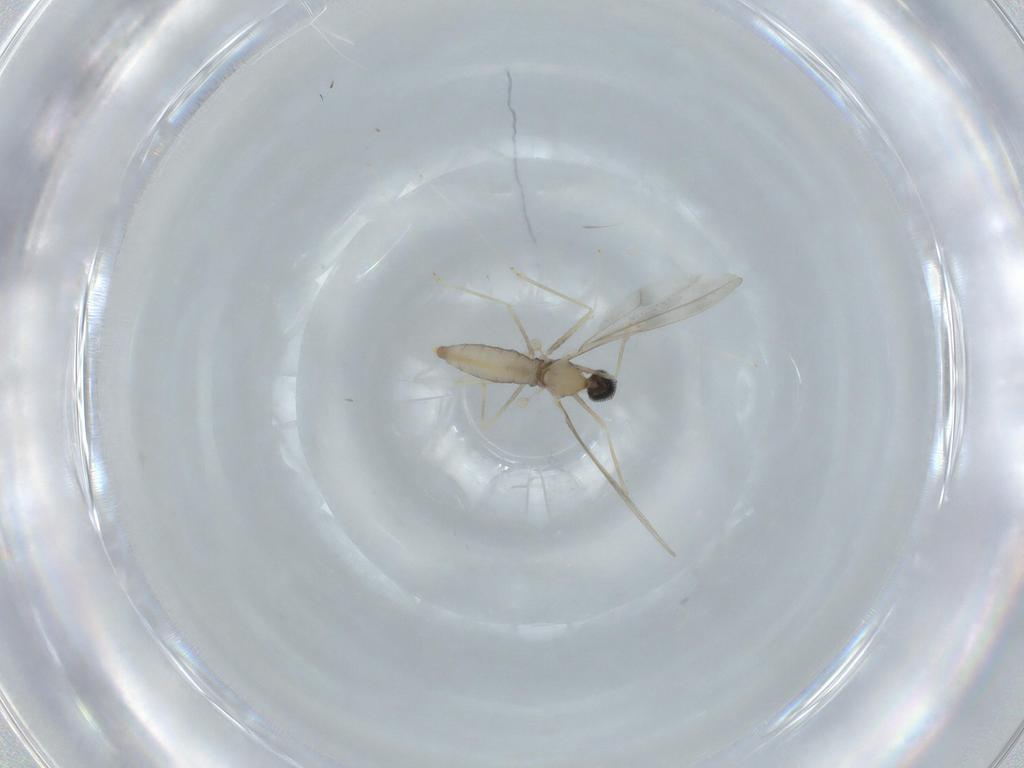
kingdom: Animalia
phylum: Arthropoda
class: Insecta
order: Diptera
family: Cecidomyiidae
